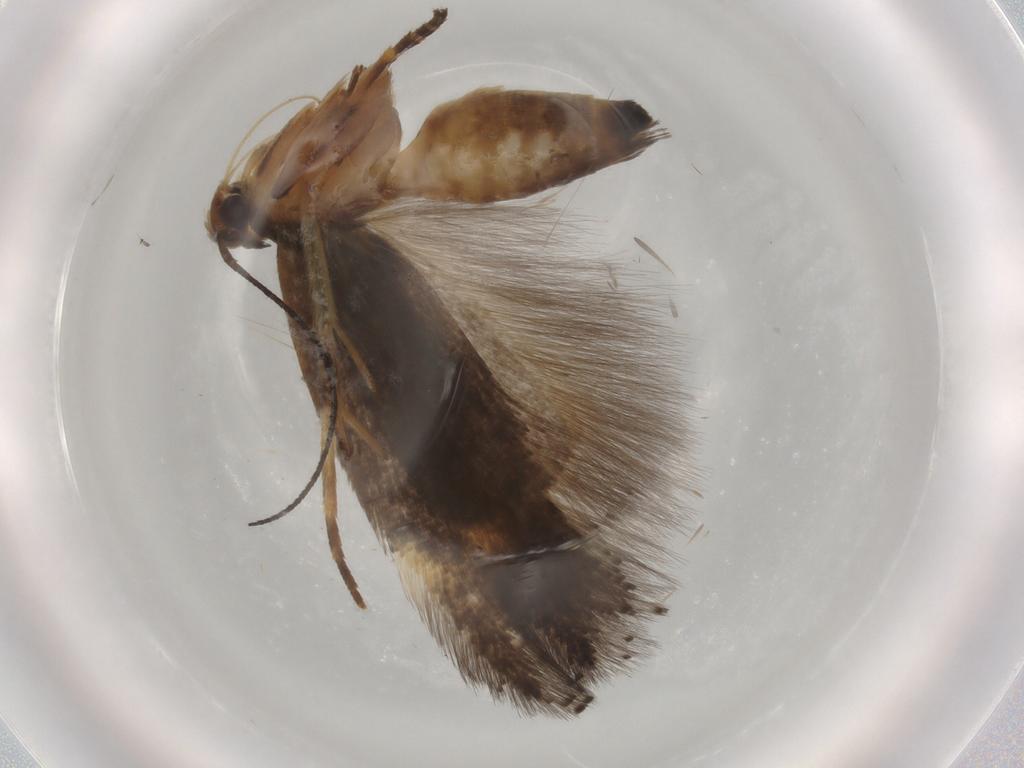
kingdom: Animalia
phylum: Arthropoda
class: Insecta
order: Lepidoptera
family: Gelechiidae
